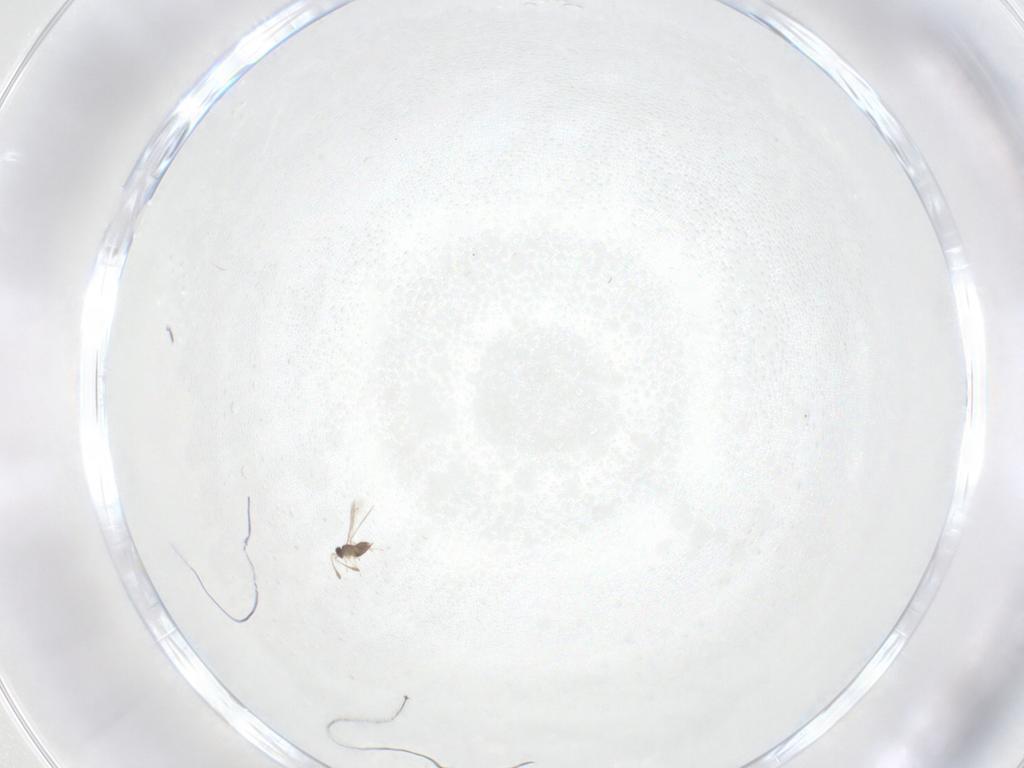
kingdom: Animalia
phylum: Arthropoda
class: Insecta
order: Hymenoptera
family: Mymaridae
